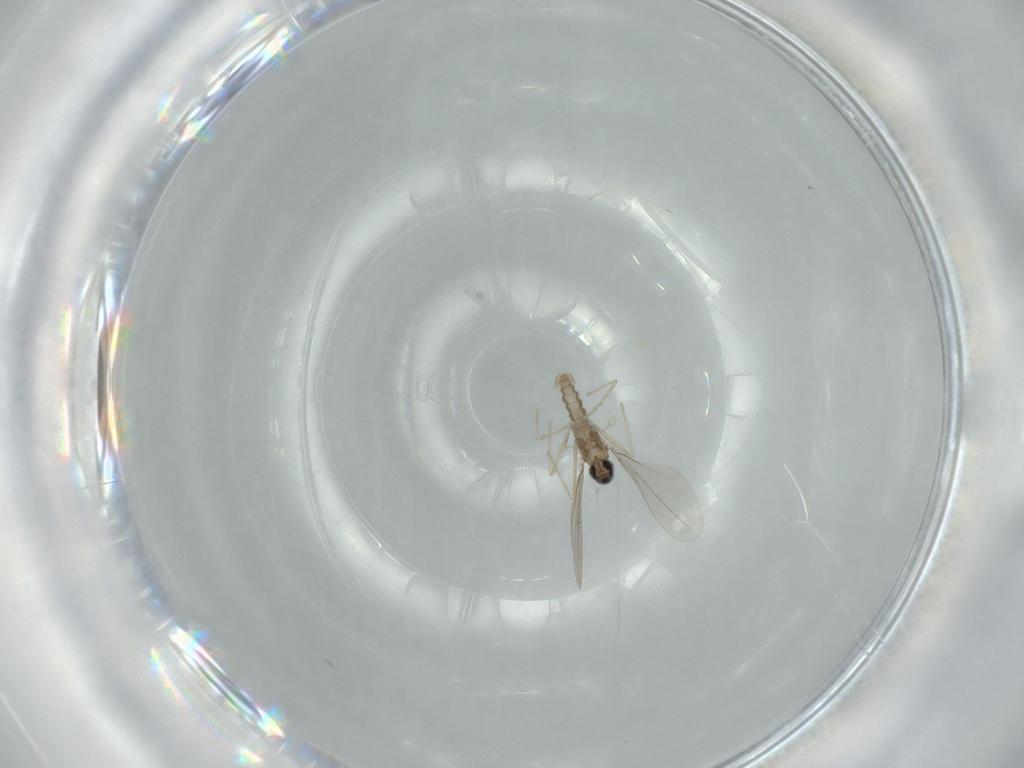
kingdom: Animalia
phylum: Arthropoda
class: Insecta
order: Diptera
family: Cecidomyiidae
